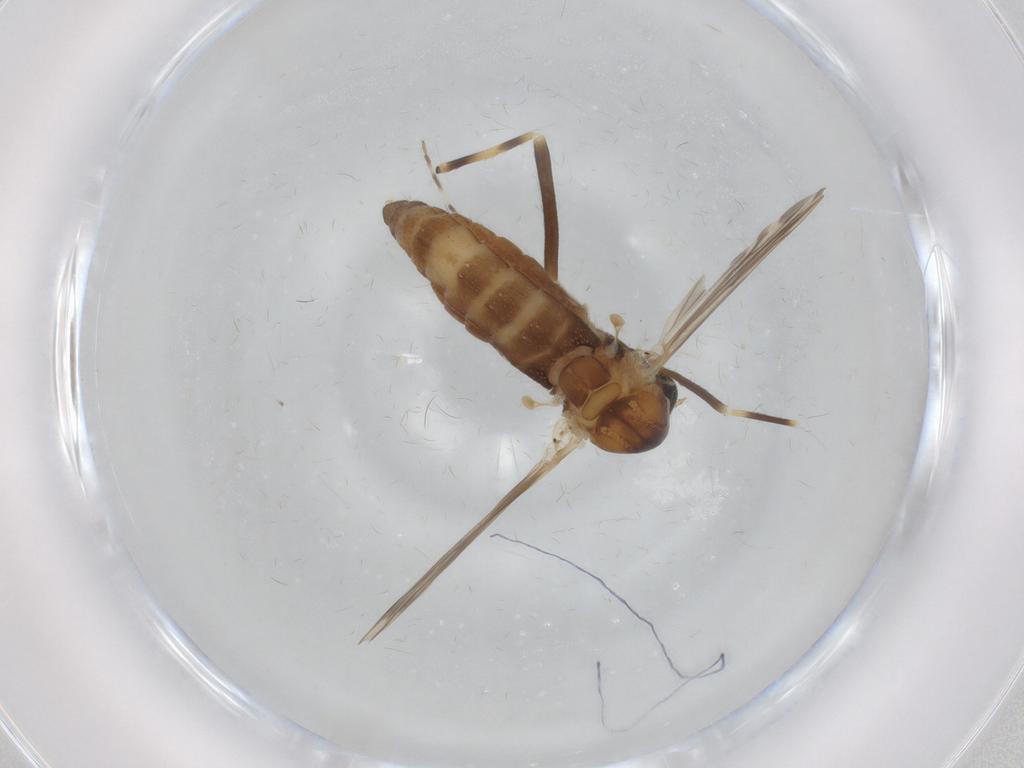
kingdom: Animalia
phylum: Arthropoda
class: Insecta
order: Diptera
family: Chironomidae
